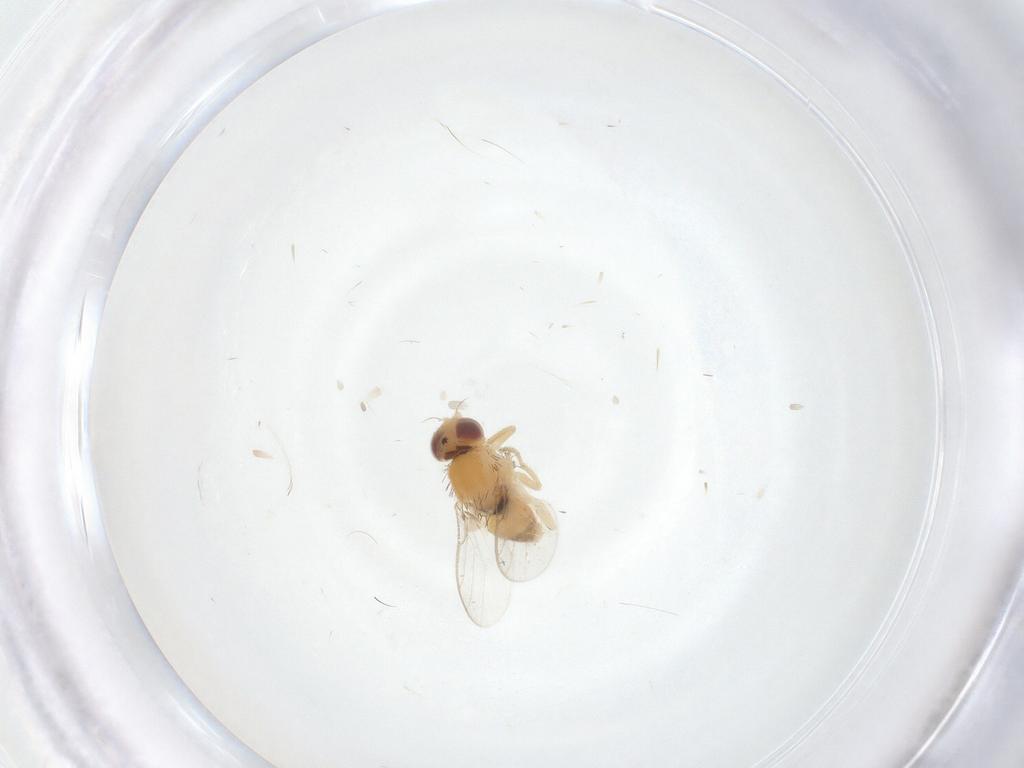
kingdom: Animalia
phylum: Arthropoda
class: Insecta
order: Diptera
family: Chloropidae
